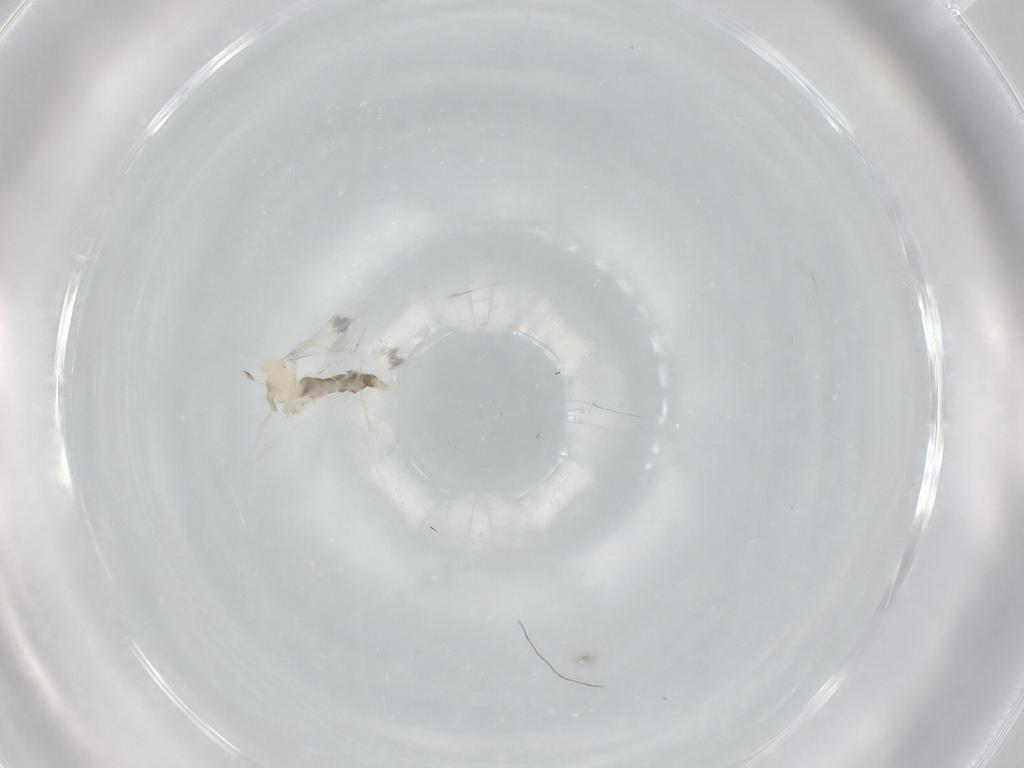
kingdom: Animalia
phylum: Arthropoda
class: Insecta
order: Diptera
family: Cecidomyiidae
